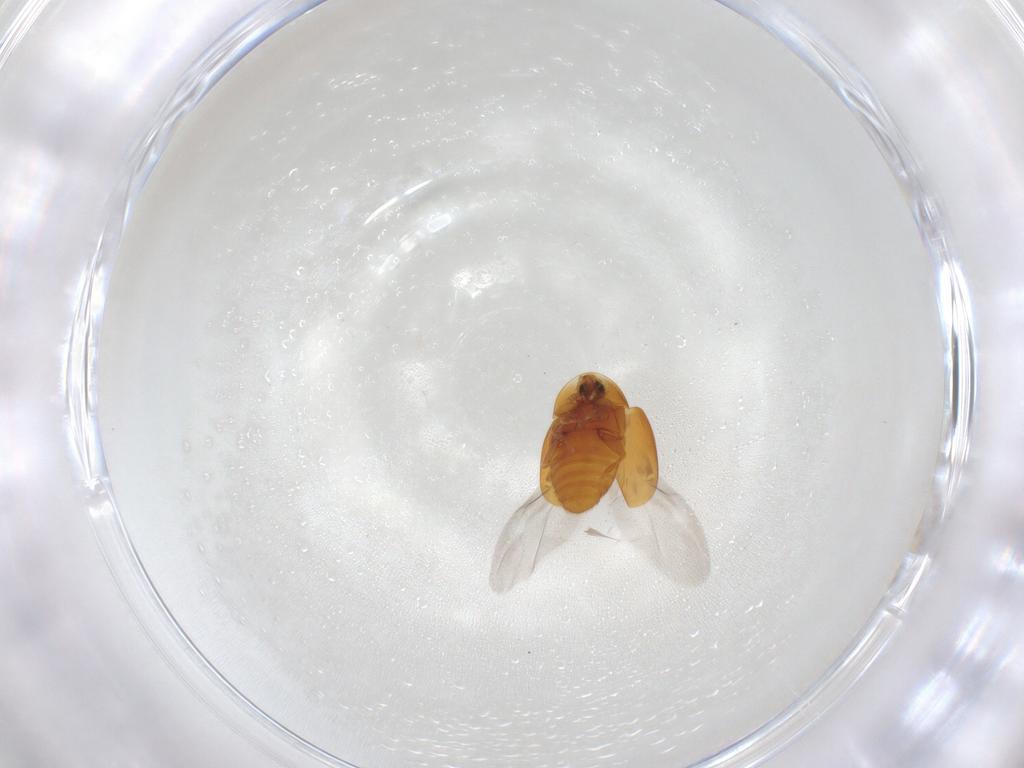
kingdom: Animalia
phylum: Arthropoda
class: Insecta
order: Coleoptera
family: Corylophidae
